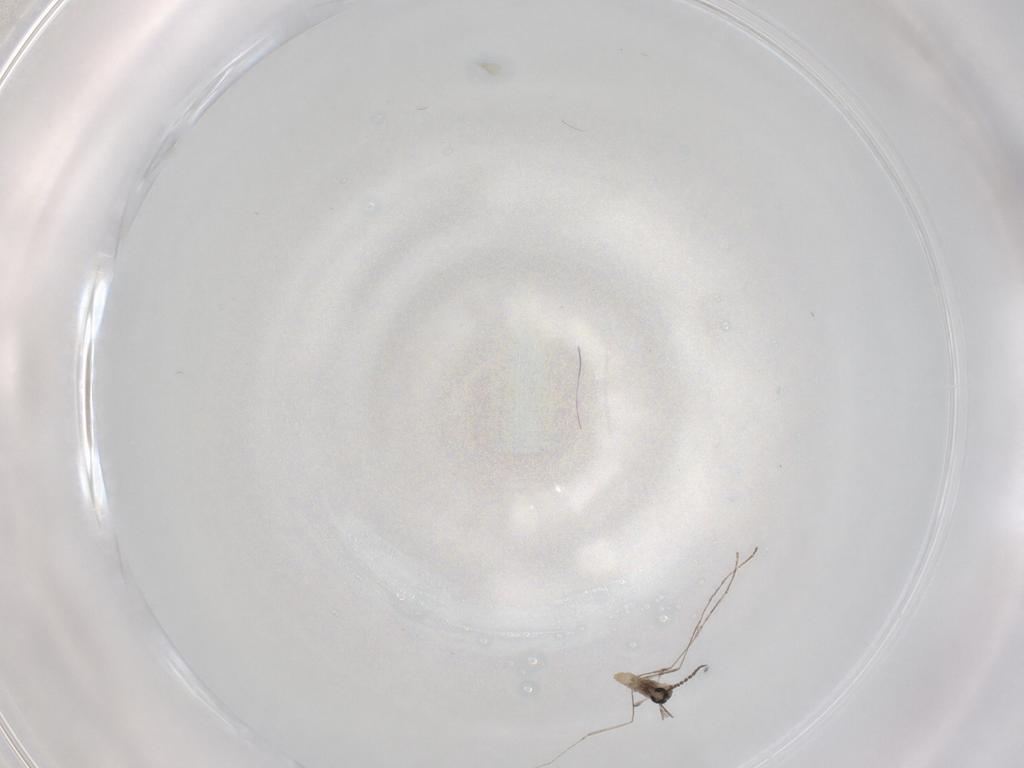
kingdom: Animalia
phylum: Arthropoda
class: Insecta
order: Diptera
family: Cecidomyiidae
